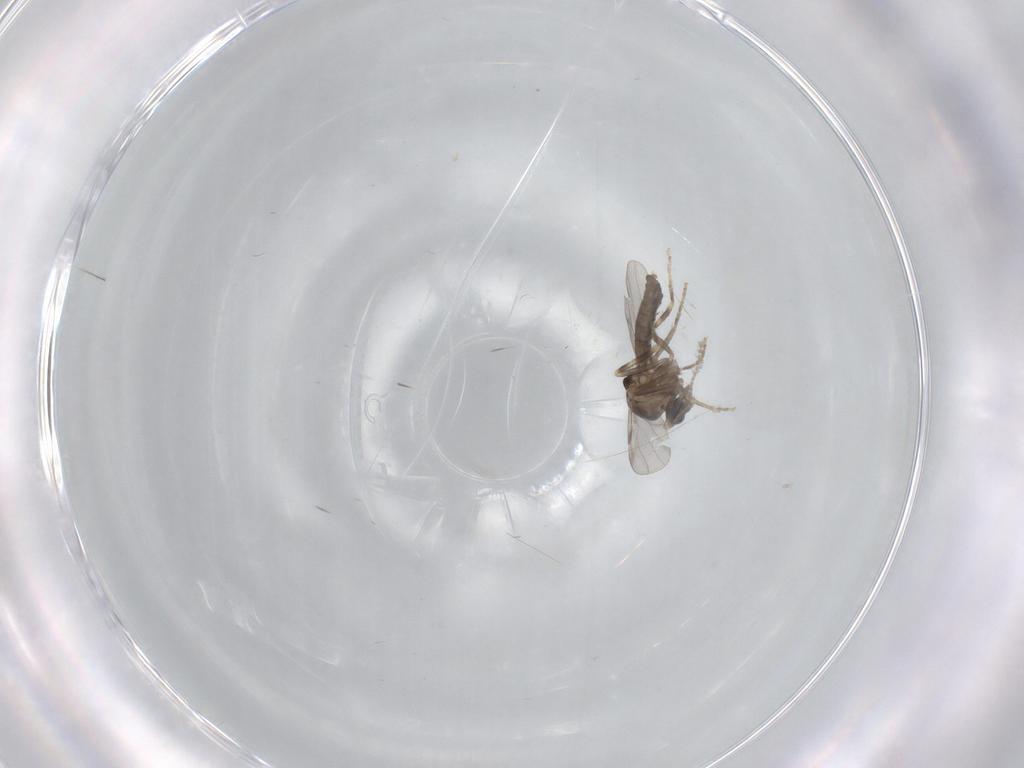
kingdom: Animalia
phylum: Arthropoda
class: Insecta
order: Diptera
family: Ceratopogonidae
